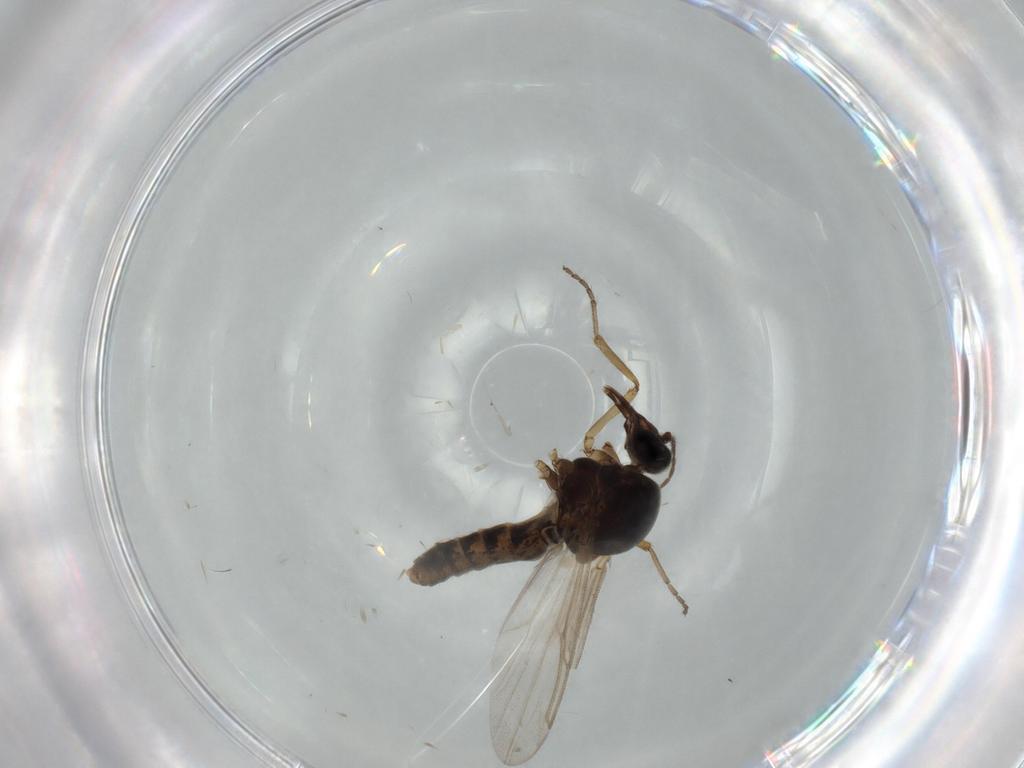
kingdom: Animalia
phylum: Arthropoda
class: Insecta
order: Diptera
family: Ceratopogonidae
